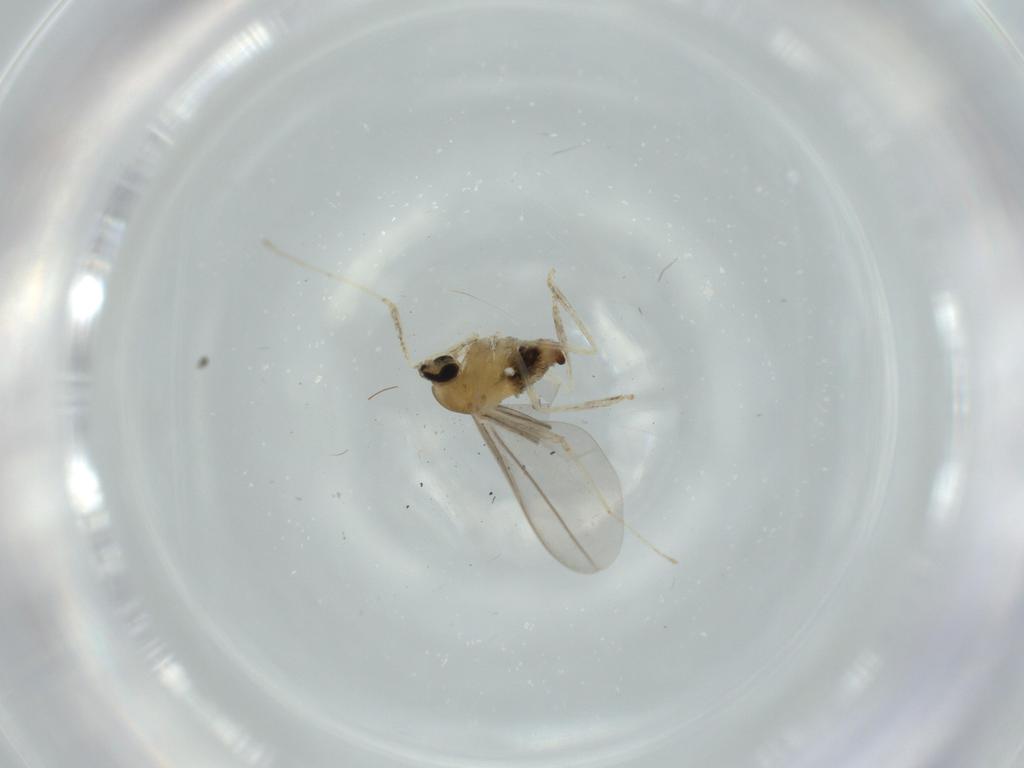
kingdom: Animalia
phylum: Arthropoda
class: Insecta
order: Diptera
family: Cecidomyiidae
